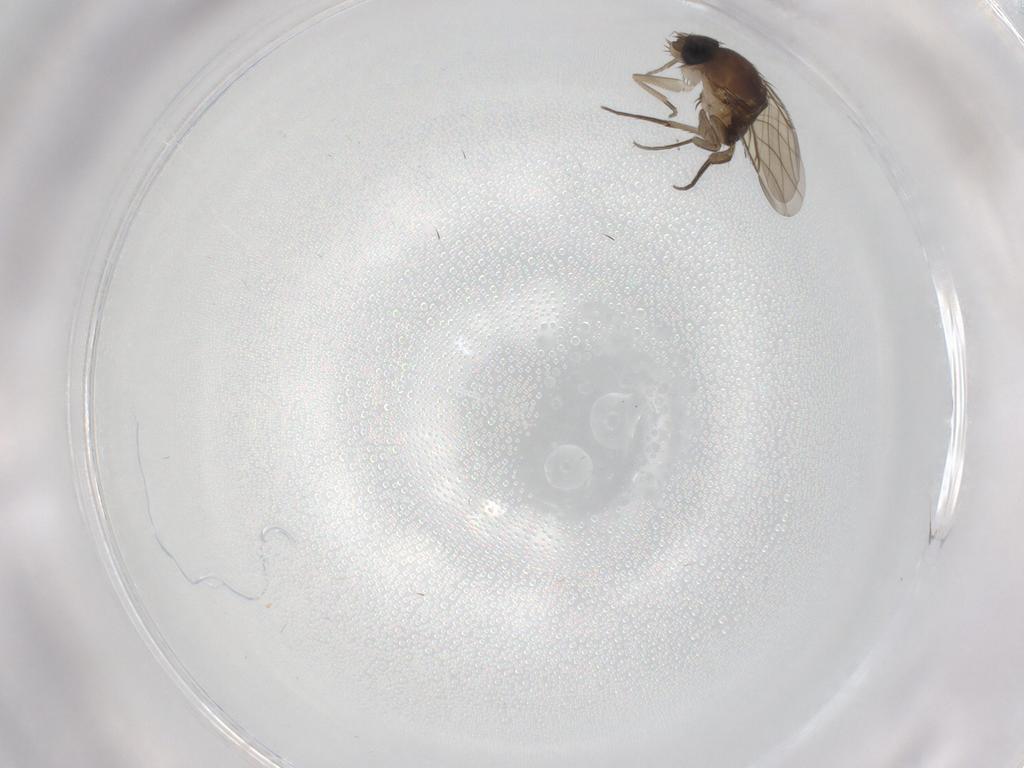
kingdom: Animalia
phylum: Arthropoda
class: Insecta
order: Diptera
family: Phoridae
